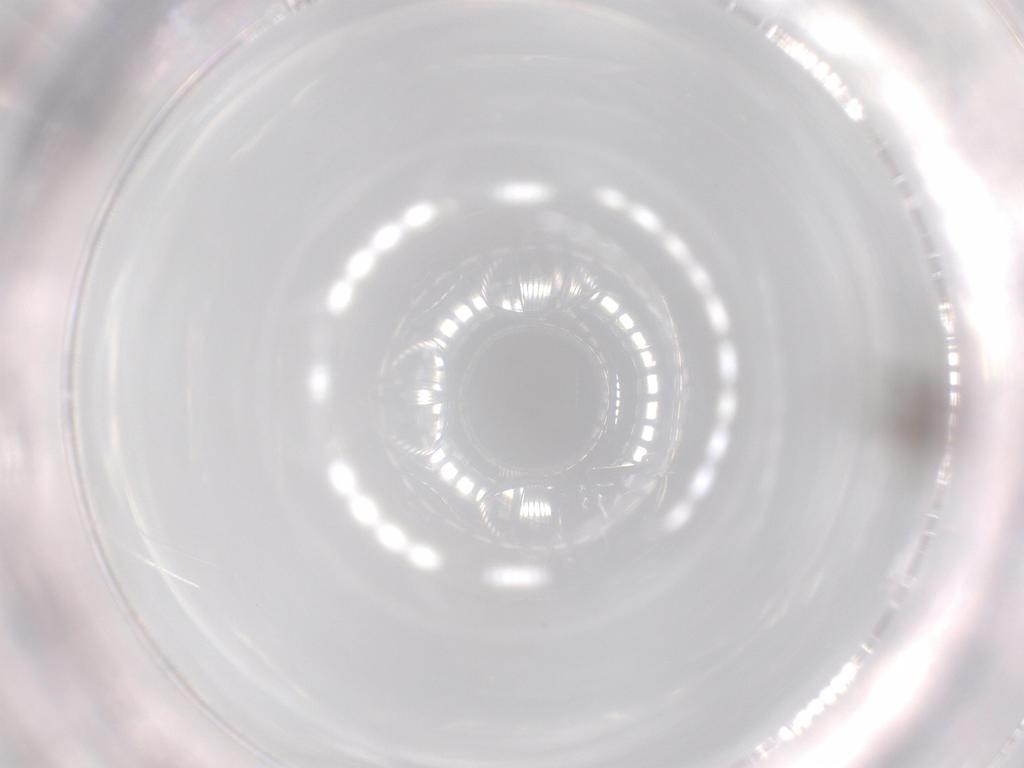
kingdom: Animalia
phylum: Arthropoda
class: Insecta
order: Diptera
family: Chironomidae
